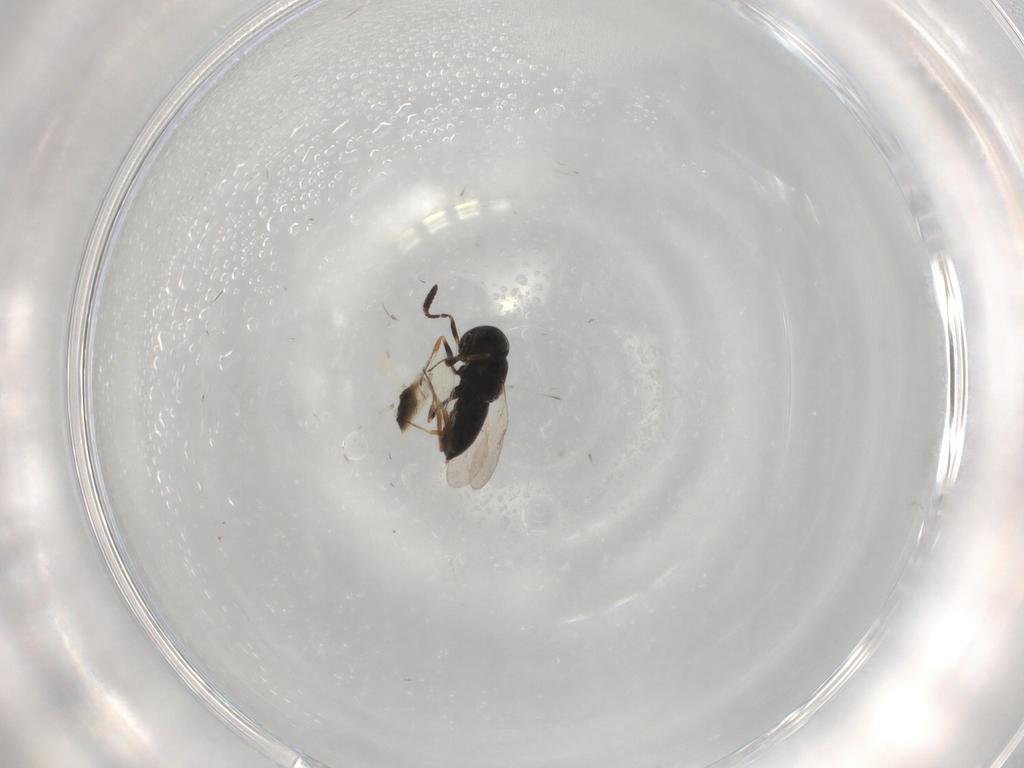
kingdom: Animalia
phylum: Arthropoda
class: Insecta
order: Hymenoptera
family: Scelionidae
